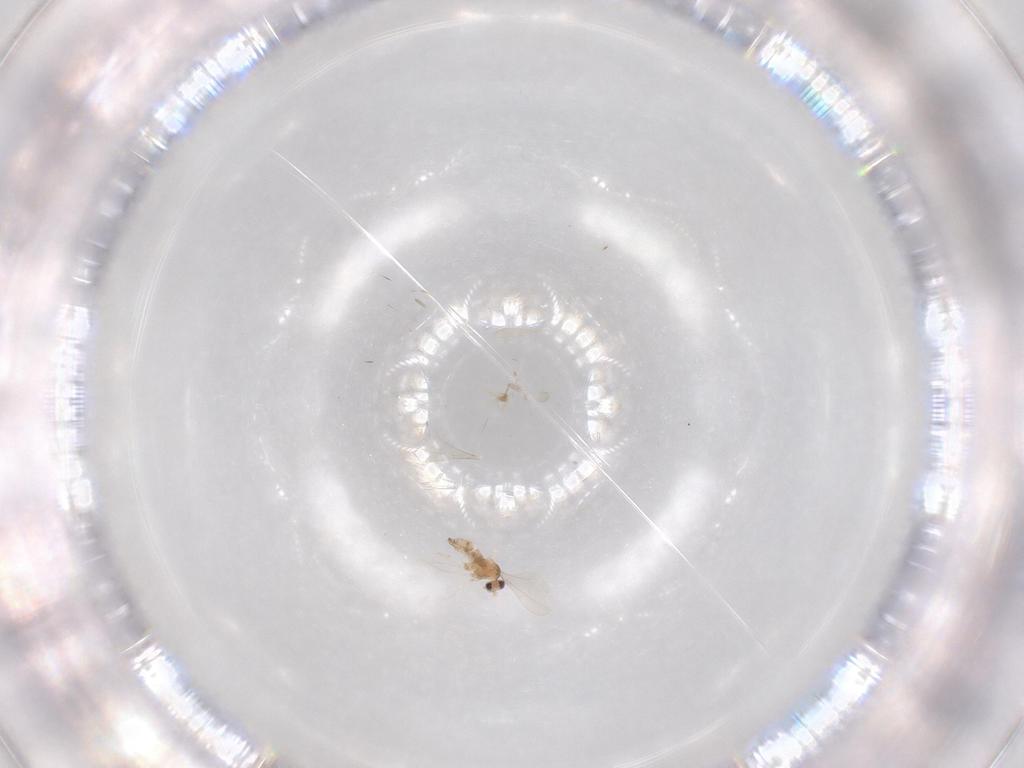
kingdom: Animalia
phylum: Arthropoda
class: Insecta
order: Diptera
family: Cecidomyiidae
